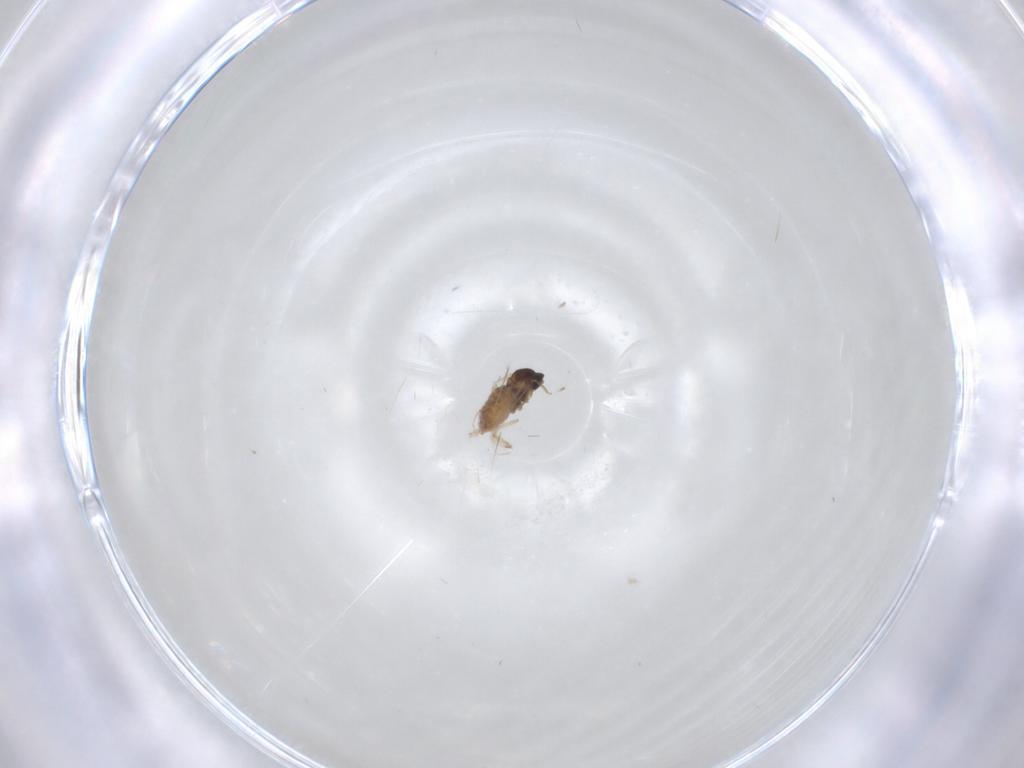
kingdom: Animalia
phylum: Arthropoda
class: Insecta
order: Diptera
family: Cecidomyiidae
